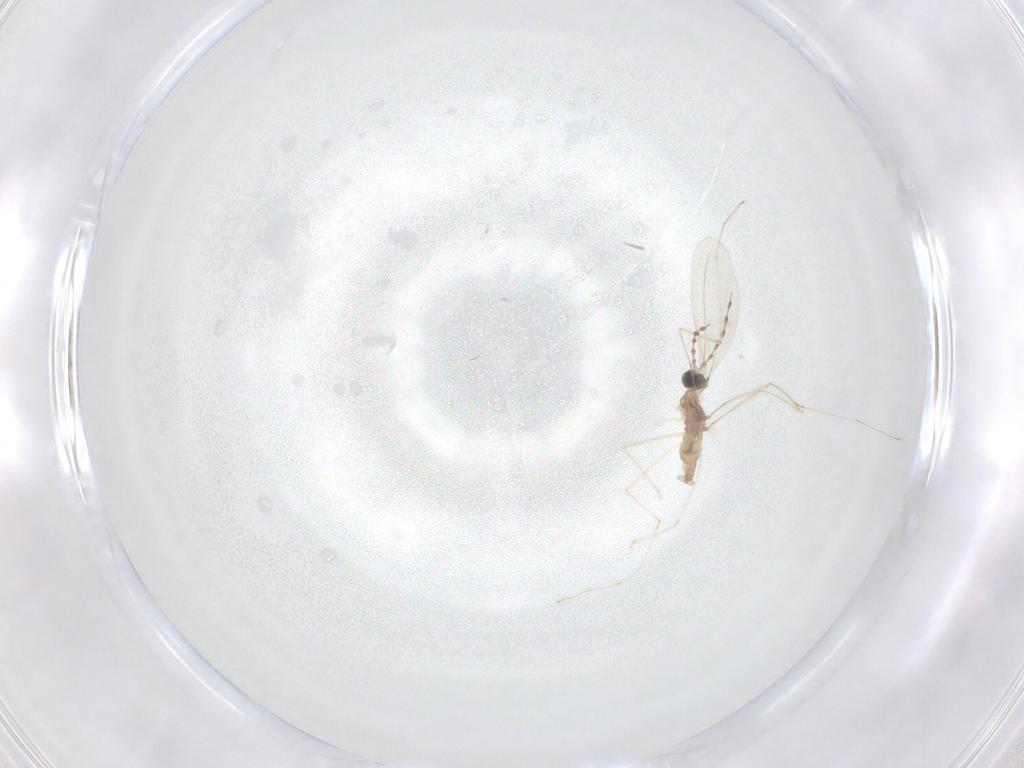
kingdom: Animalia
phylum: Arthropoda
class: Insecta
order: Diptera
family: Cecidomyiidae
